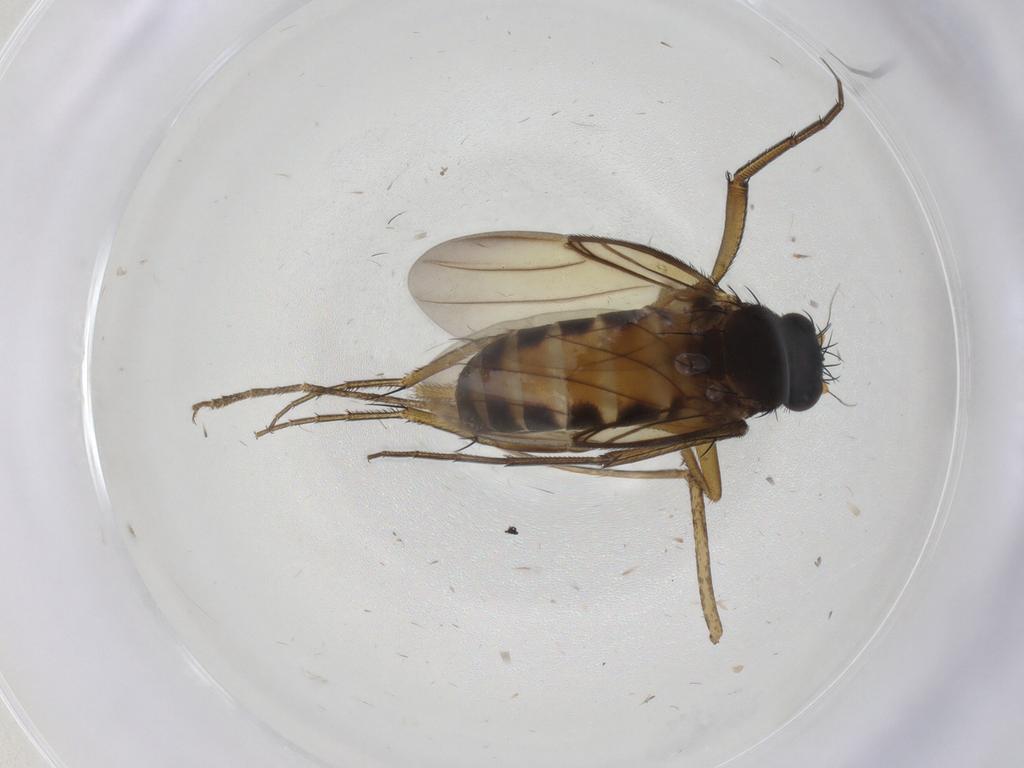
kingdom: Animalia
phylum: Arthropoda
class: Insecta
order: Diptera
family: Phoridae
